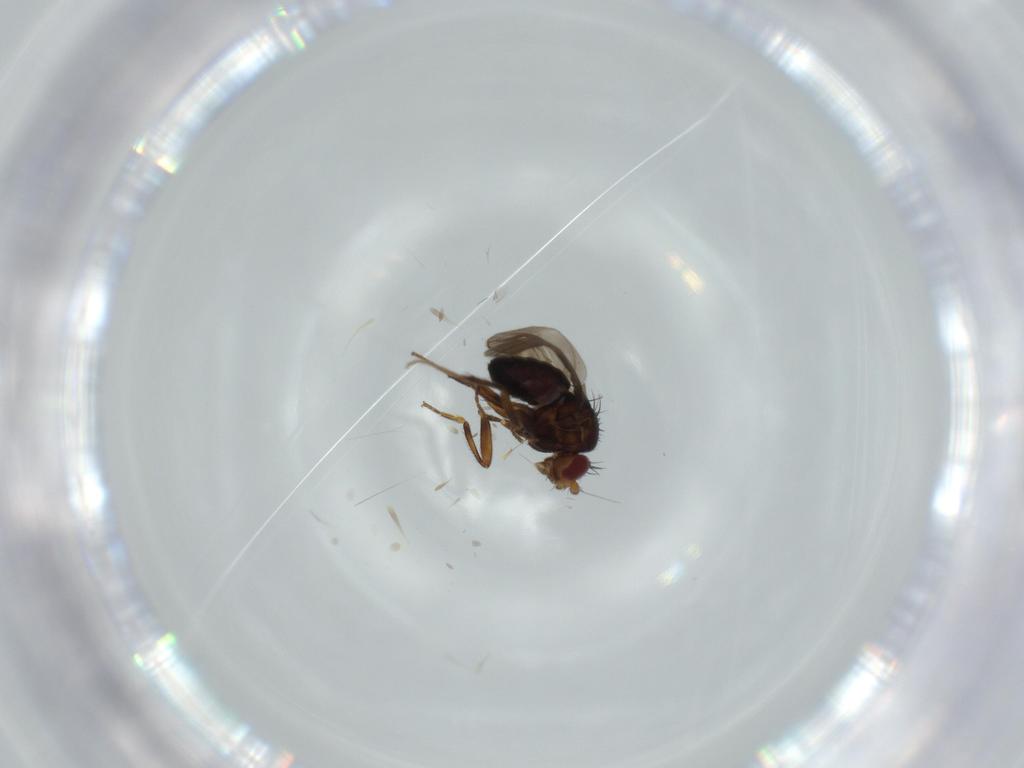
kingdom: Animalia
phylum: Arthropoda
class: Insecta
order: Diptera
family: Sphaeroceridae
